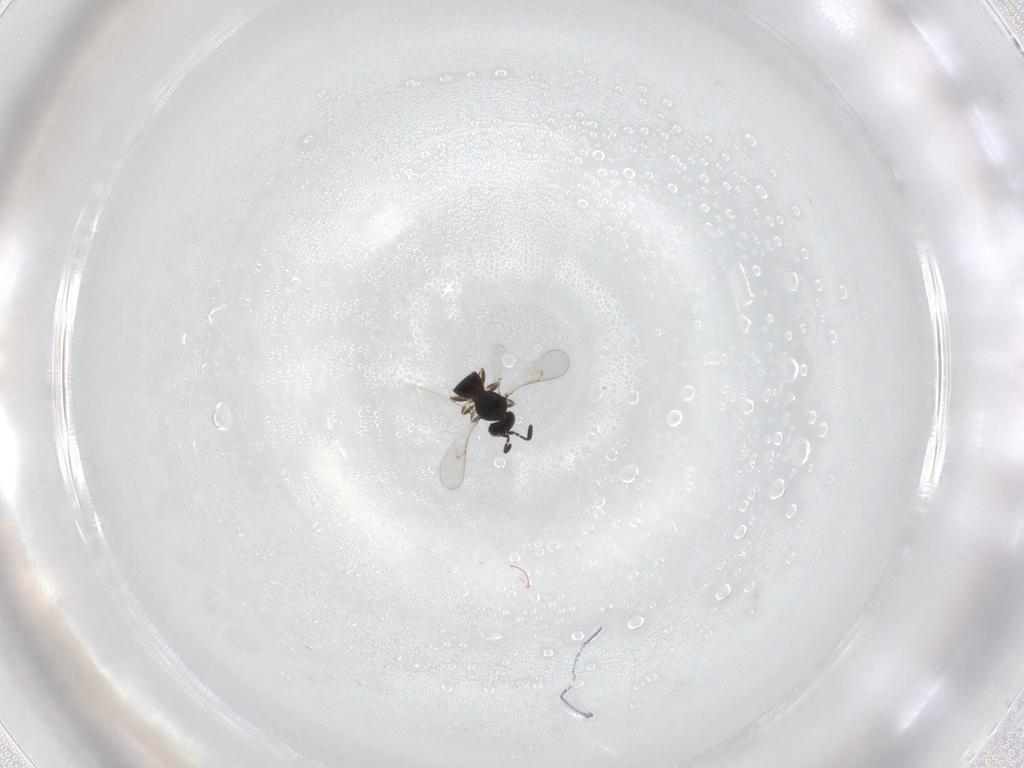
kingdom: Animalia
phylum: Arthropoda
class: Insecta
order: Hymenoptera
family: Scelionidae
